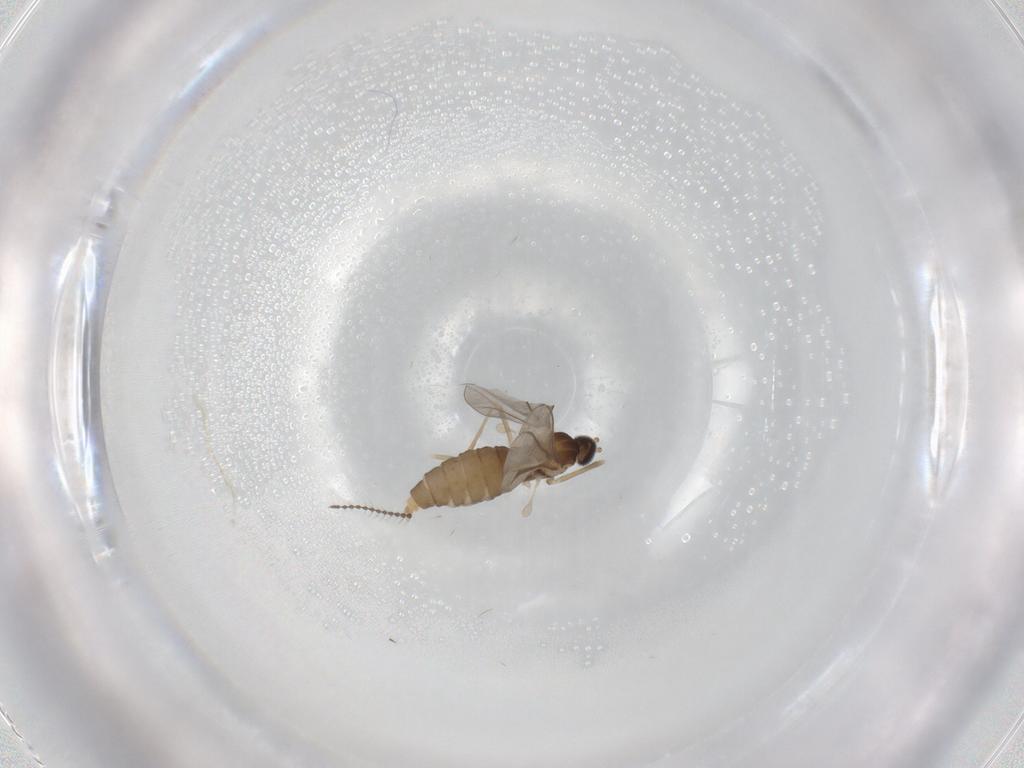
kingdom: Animalia
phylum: Arthropoda
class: Insecta
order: Diptera
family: Cecidomyiidae
